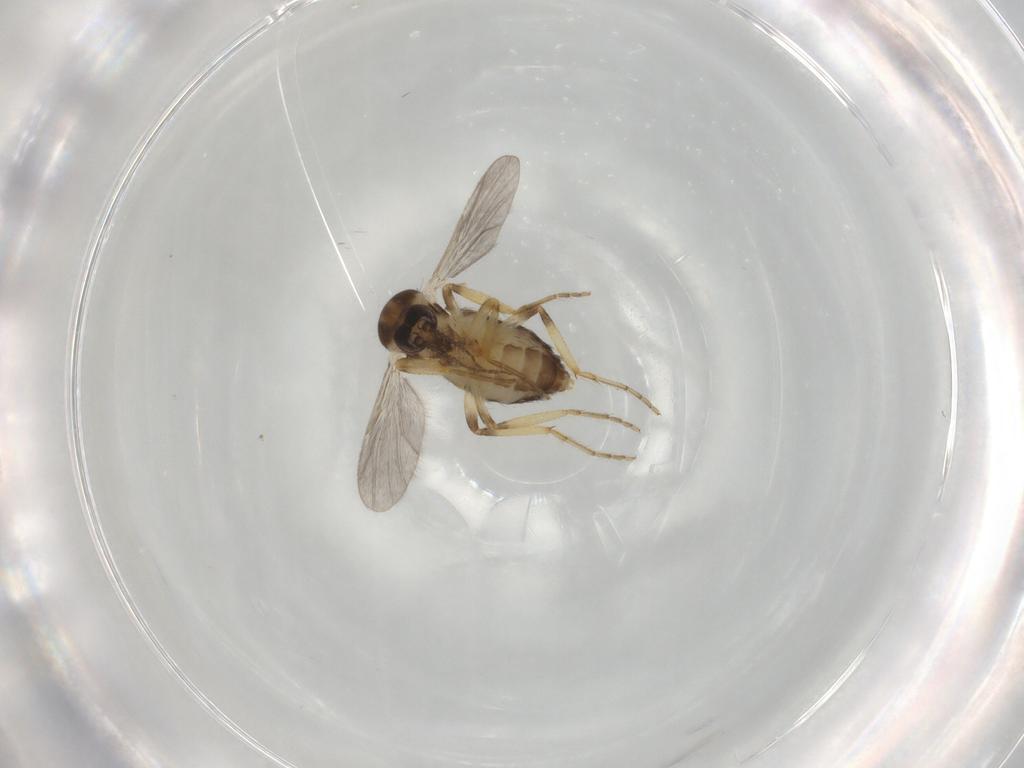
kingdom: Animalia
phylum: Arthropoda
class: Insecta
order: Diptera
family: Ceratopogonidae
